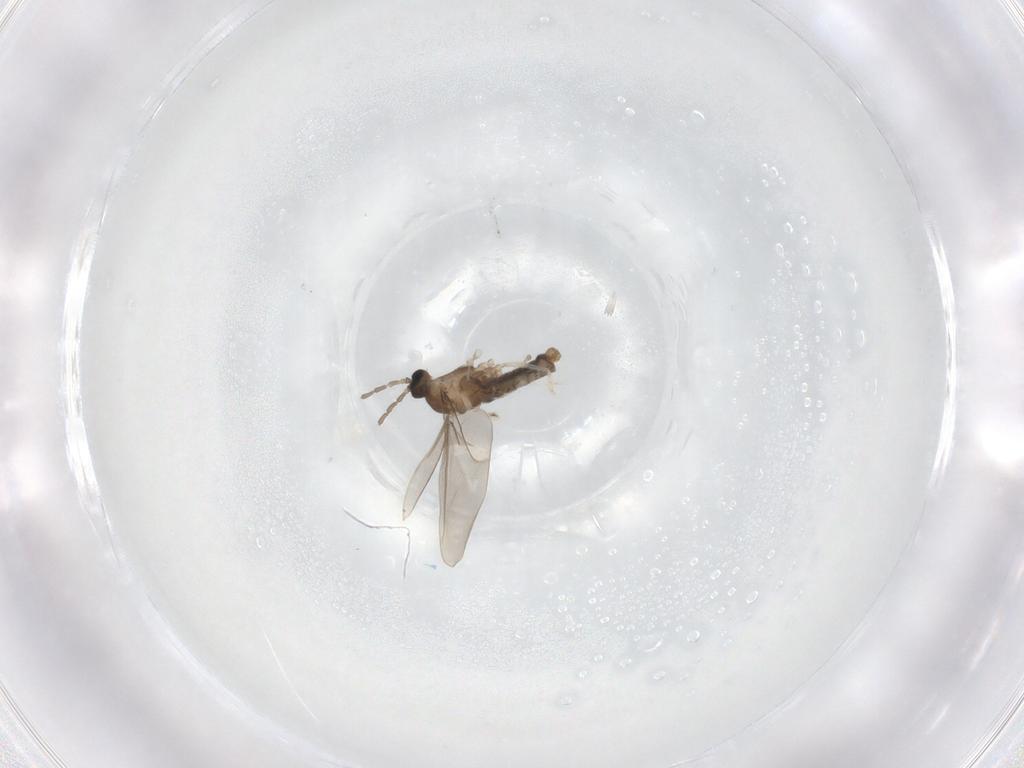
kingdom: Animalia
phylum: Arthropoda
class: Insecta
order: Diptera
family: Cecidomyiidae
